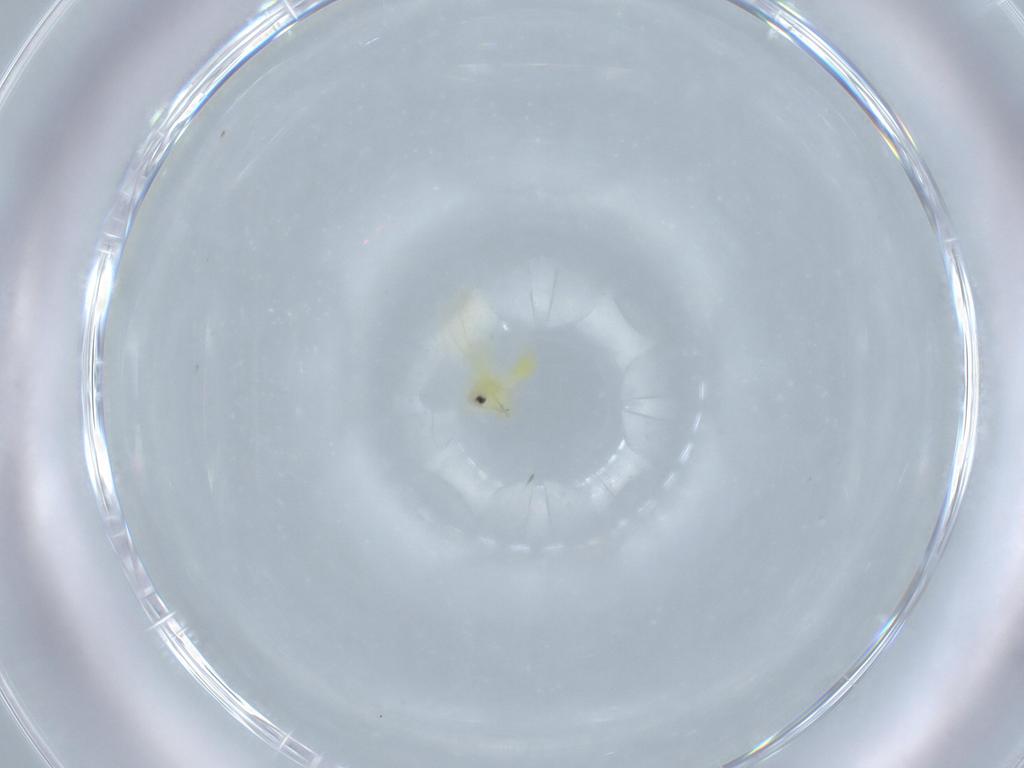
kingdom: Animalia
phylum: Arthropoda
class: Insecta
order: Hemiptera
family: Aleyrodidae
